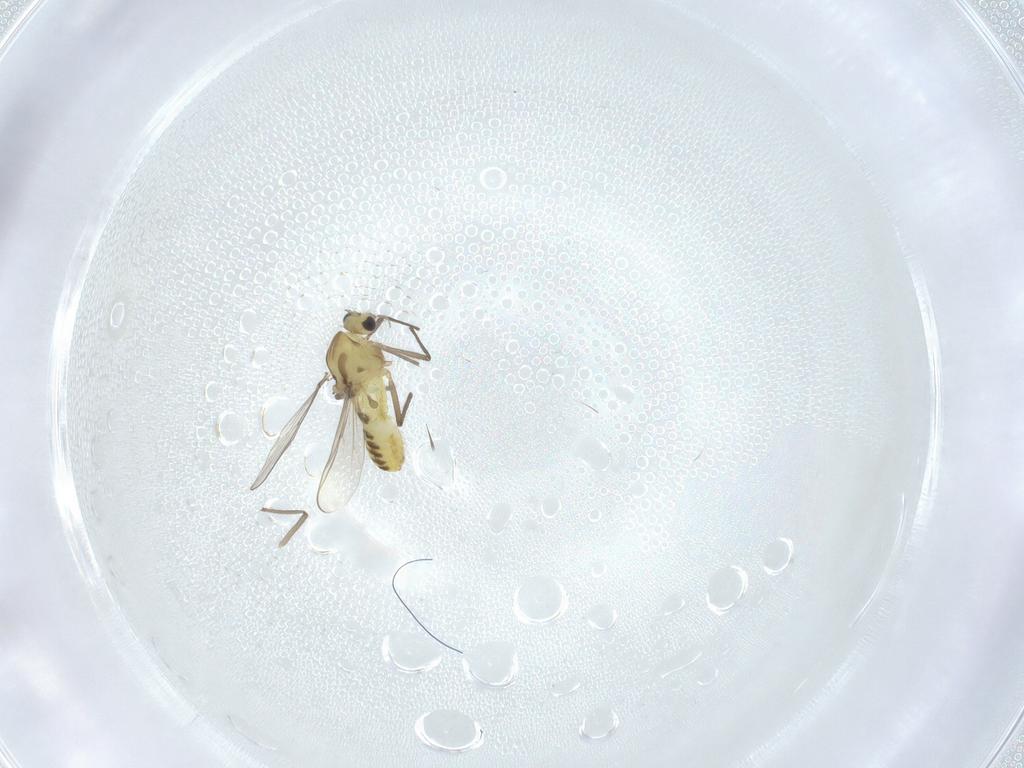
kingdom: Animalia
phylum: Arthropoda
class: Insecta
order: Diptera
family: Chironomidae
